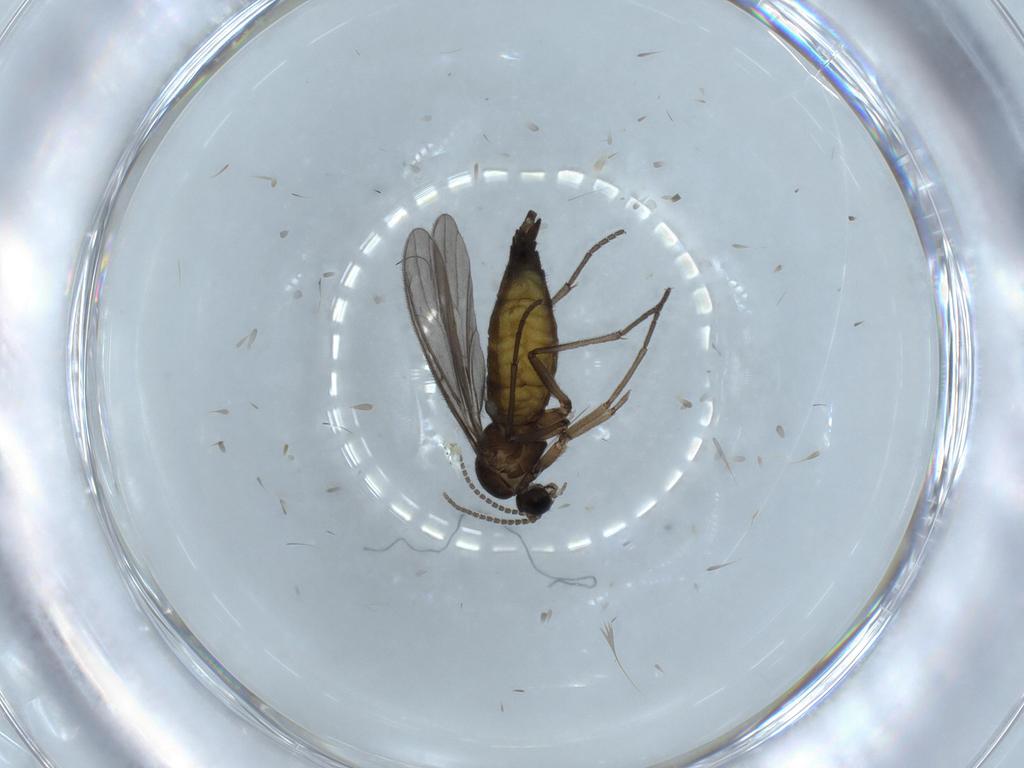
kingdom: Animalia
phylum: Arthropoda
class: Insecta
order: Diptera
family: Sciaridae
